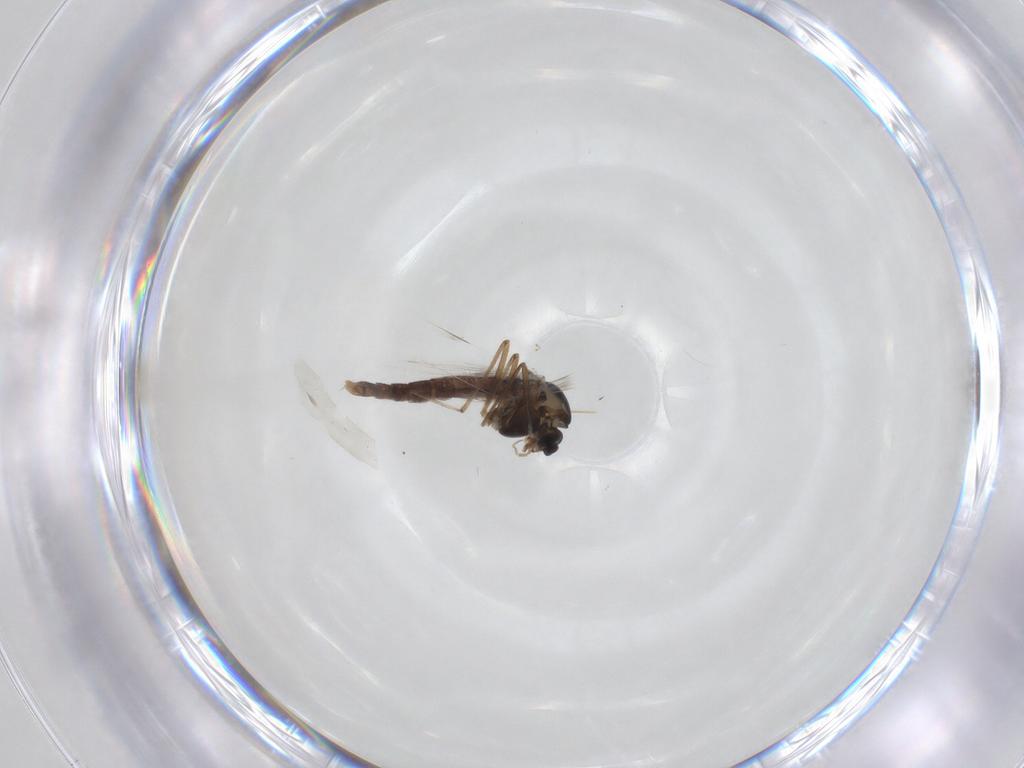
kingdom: Animalia
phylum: Arthropoda
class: Insecta
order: Diptera
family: Chironomidae
